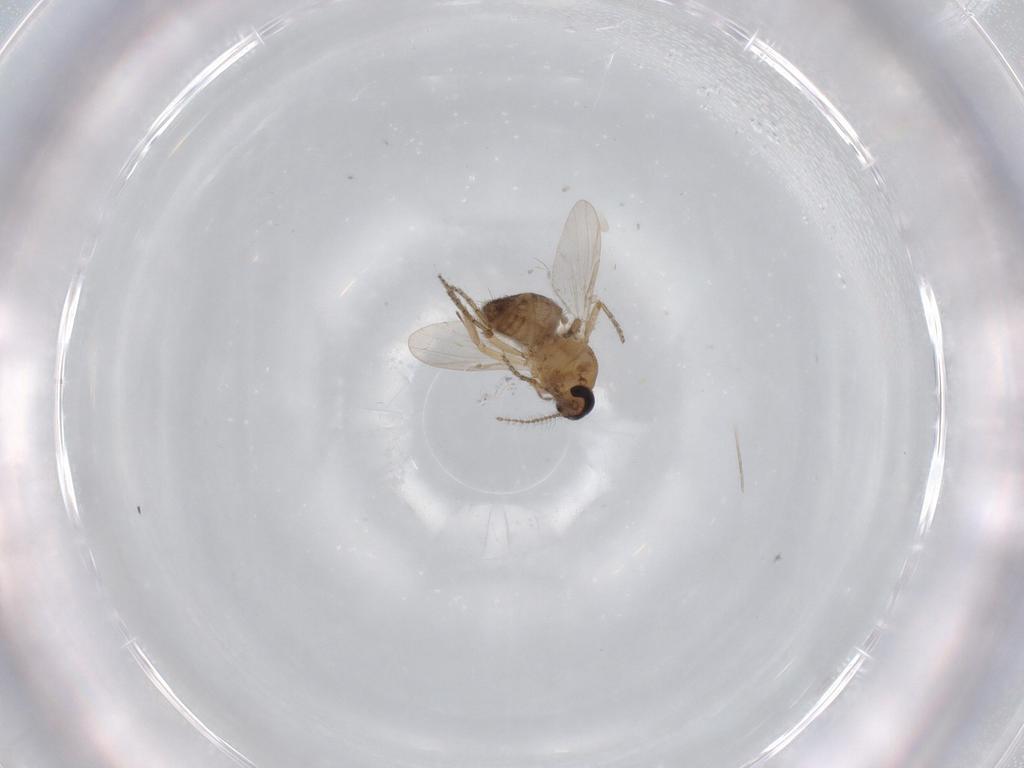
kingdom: Animalia
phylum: Arthropoda
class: Insecta
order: Diptera
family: Ceratopogonidae
